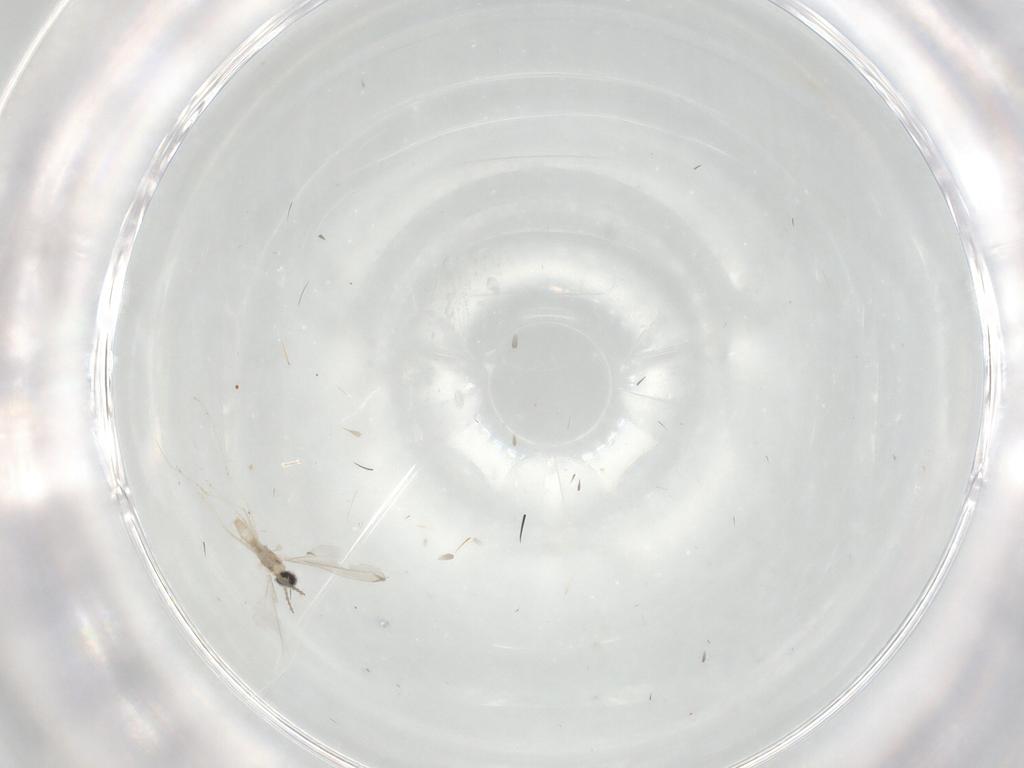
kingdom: Animalia
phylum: Arthropoda
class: Insecta
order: Diptera
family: Cecidomyiidae
